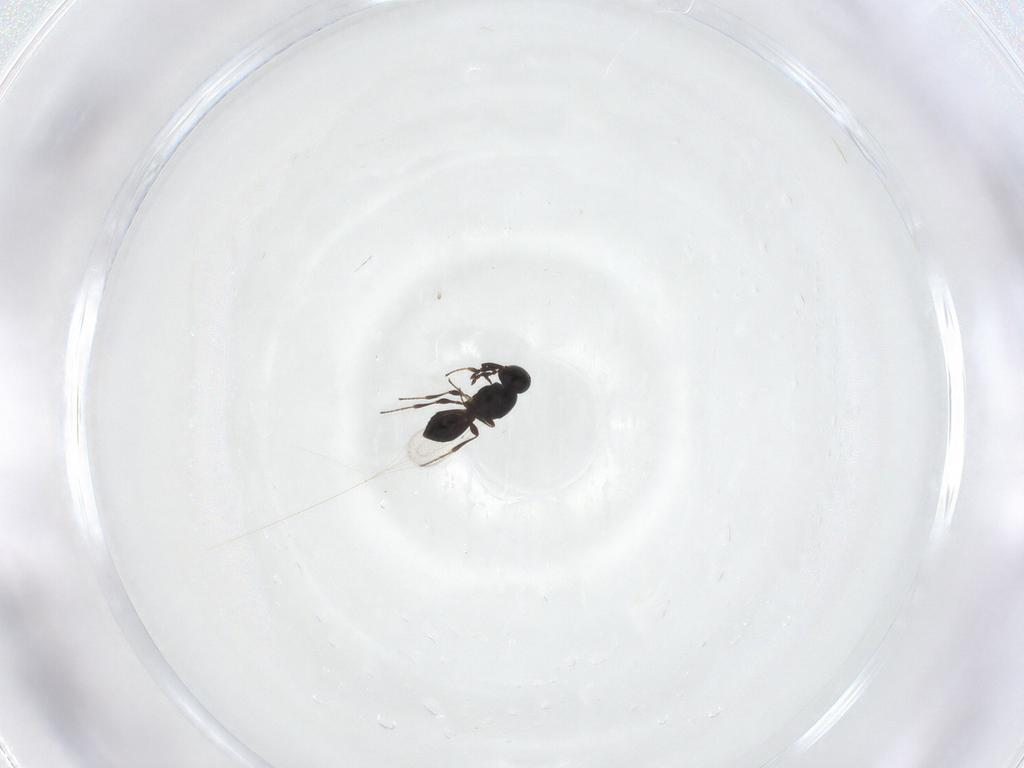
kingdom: Animalia
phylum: Arthropoda
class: Insecta
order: Hymenoptera
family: Platygastridae
